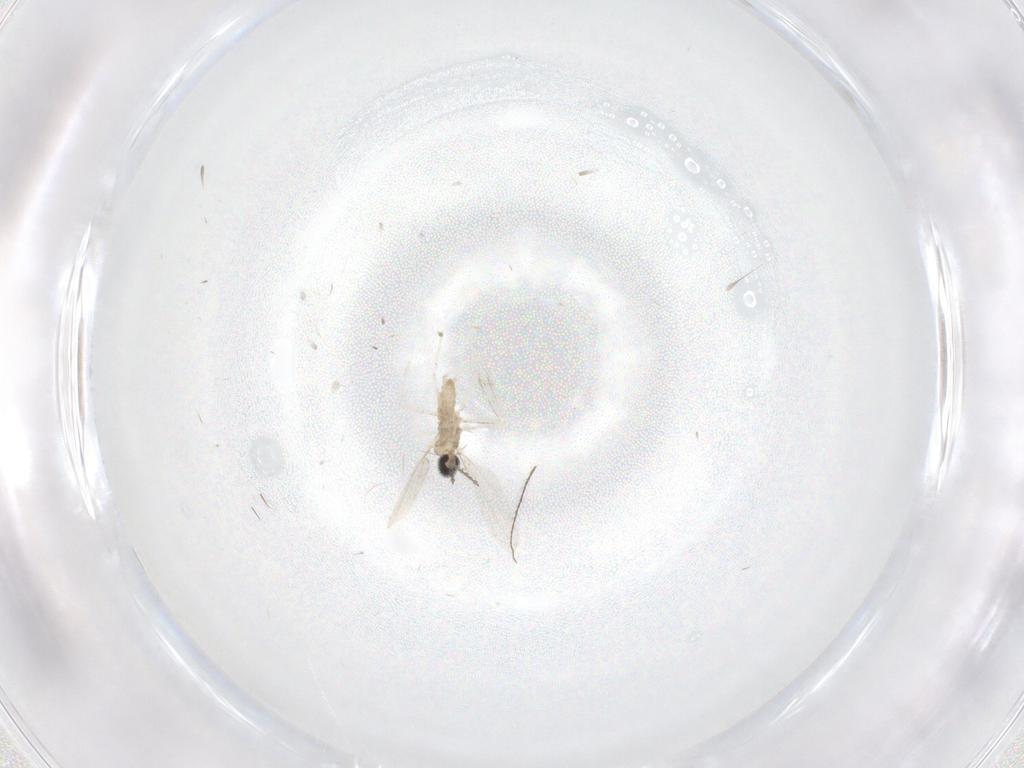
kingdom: Animalia
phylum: Arthropoda
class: Insecta
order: Diptera
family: Cecidomyiidae
